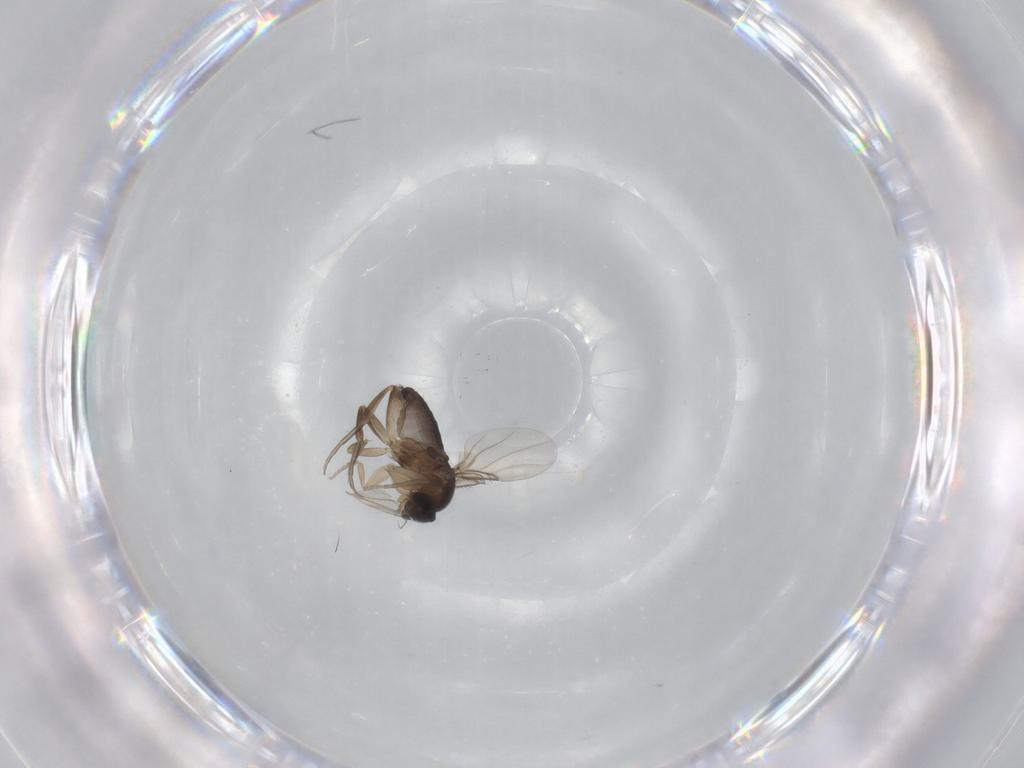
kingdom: Animalia
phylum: Arthropoda
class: Insecta
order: Diptera
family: Phoridae
